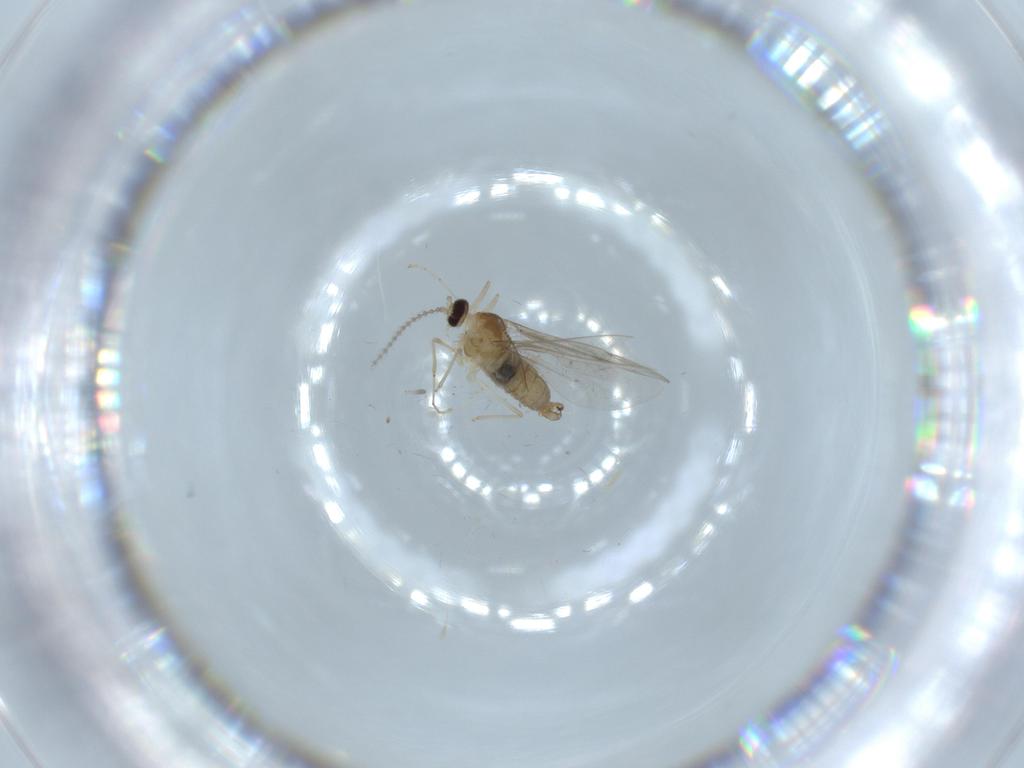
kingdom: Animalia
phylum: Arthropoda
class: Insecta
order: Diptera
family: Cecidomyiidae
